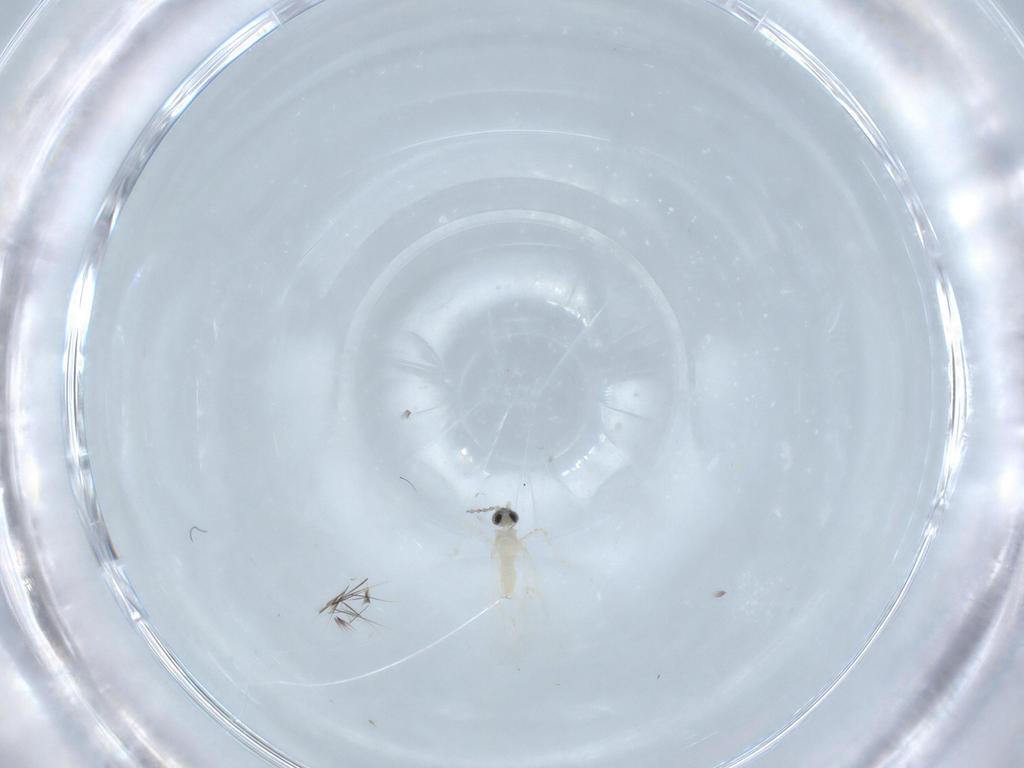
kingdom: Animalia
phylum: Arthropoda
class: Insecta
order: Diptera
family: Cecidomyiidae
